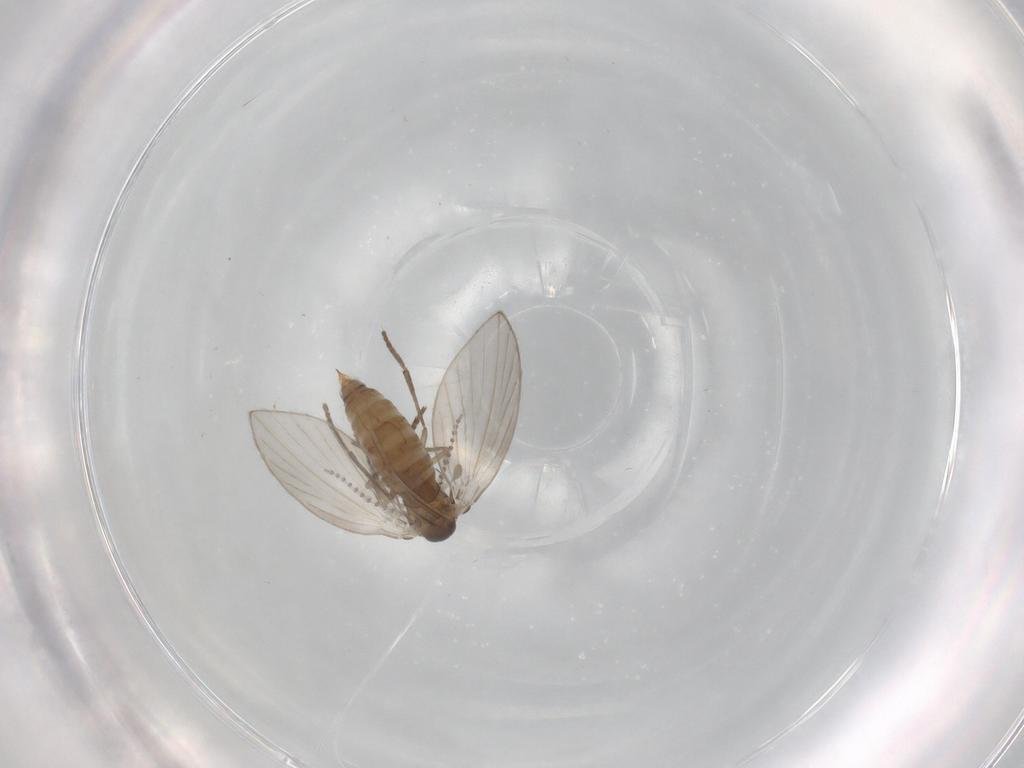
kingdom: Animalia
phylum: Arthropoda
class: Insecta
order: Diptera
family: Psychodidae
